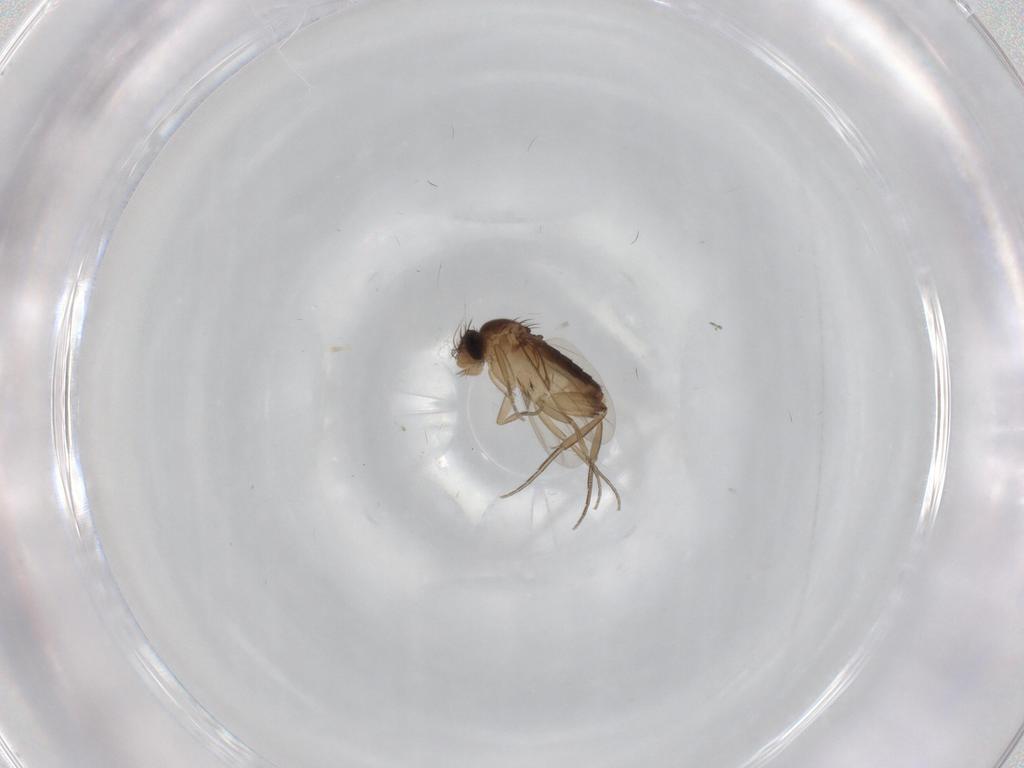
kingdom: Animalia
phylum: Arthropoda
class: Insecta
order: Diptera
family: Phoridae
